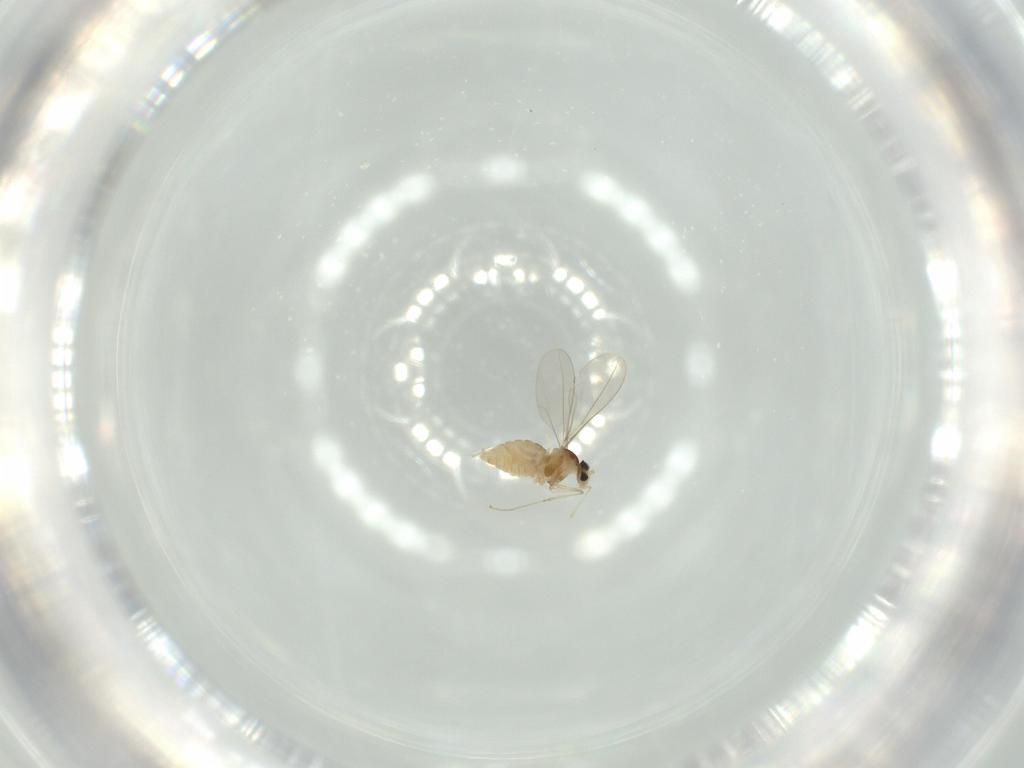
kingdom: Animalia
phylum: Arthropoda
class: Insecta
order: Diptera
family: Cecidomyiidae
